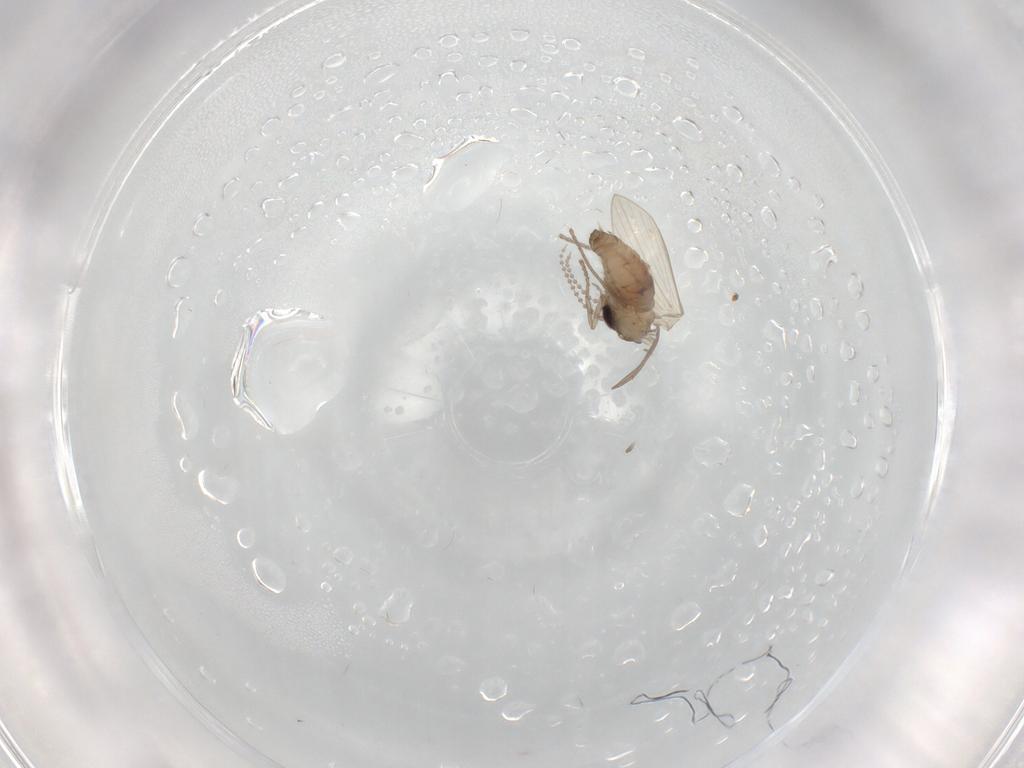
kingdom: Animalia
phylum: Arthropoda
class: Insecta
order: Diptera
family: Psychodidae
